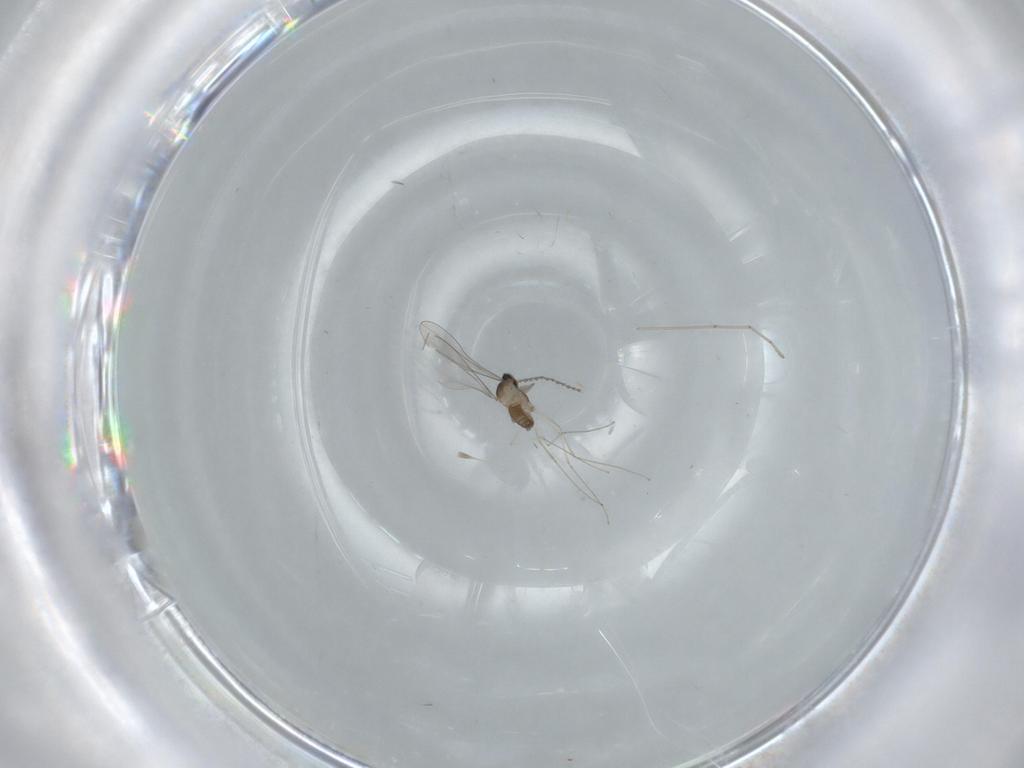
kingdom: Animalia
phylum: Arthropoda
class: Insecta
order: Diptera
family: Cecidomyiidae
